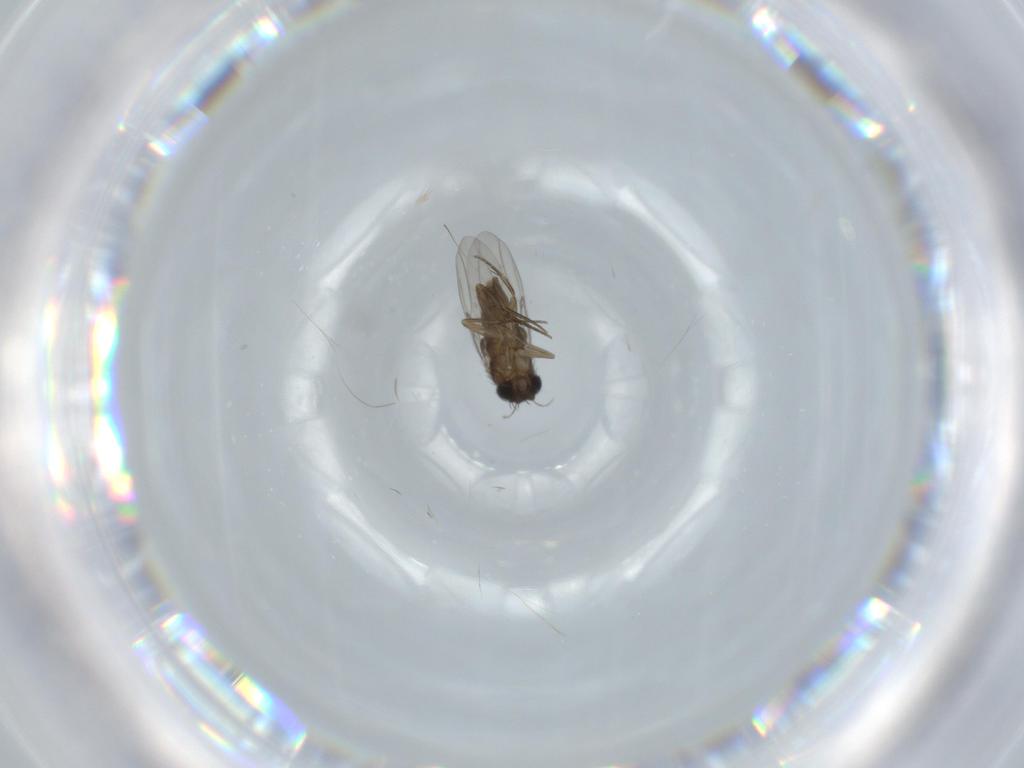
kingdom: Animalia
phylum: Arthropoda
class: Insecta
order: Diptera
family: Phoridae
